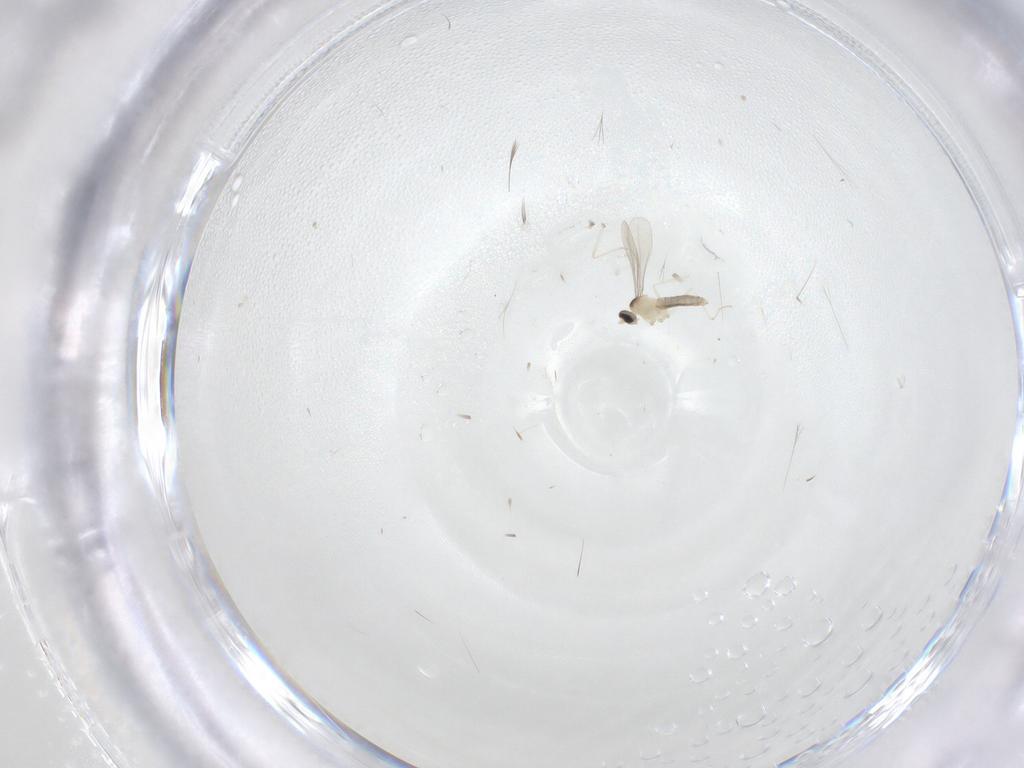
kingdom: Animalia
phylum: Arthropoda
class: Insecta
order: Diptera
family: Cecidomyiidae
